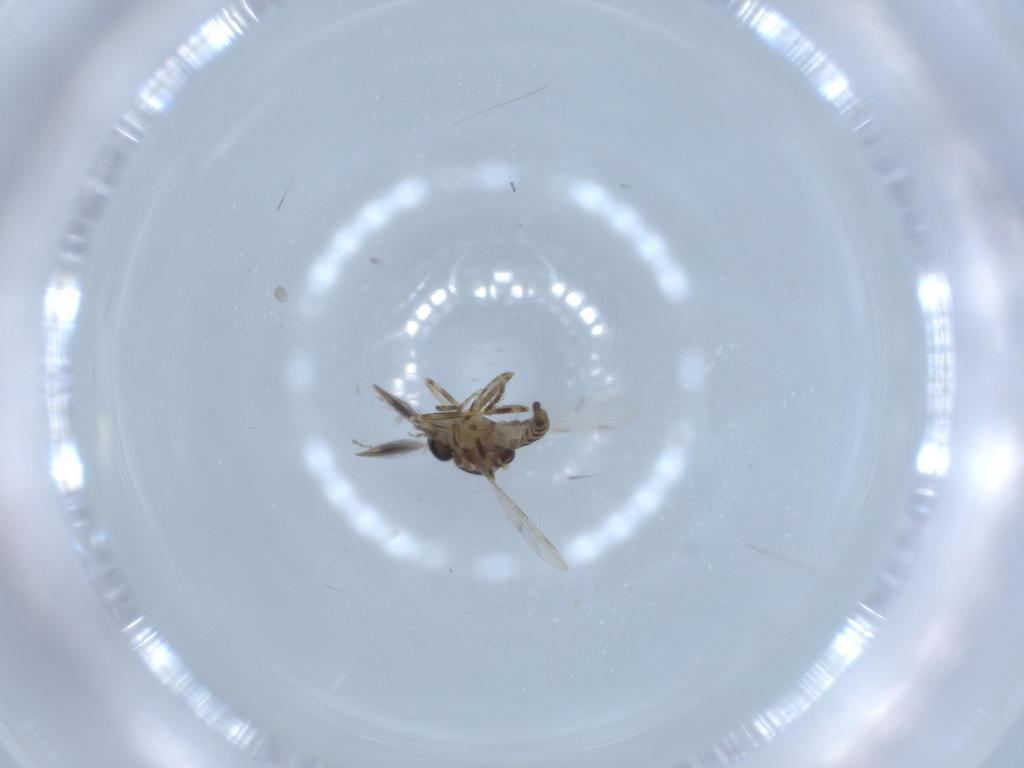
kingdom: Animalia
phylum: Arthropoda
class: Insecta
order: Diptera
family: Ceratopogonidae
